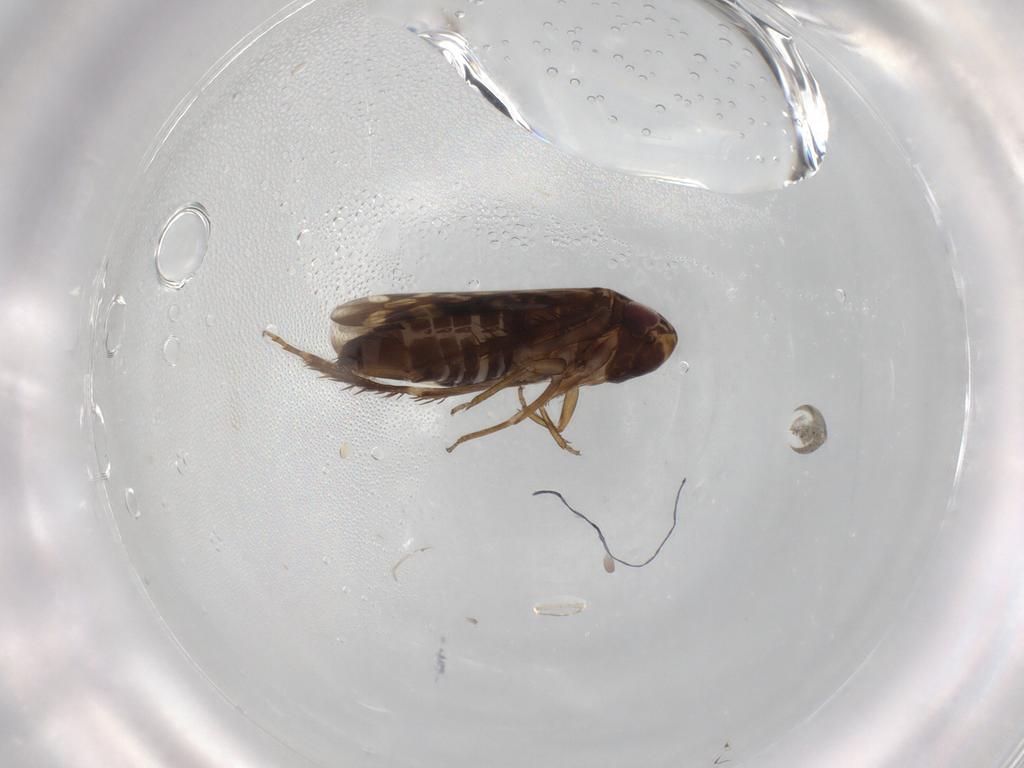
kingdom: Animalia
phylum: Arthropoda
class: Insecta
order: Hemiptera
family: Cicadellidae
